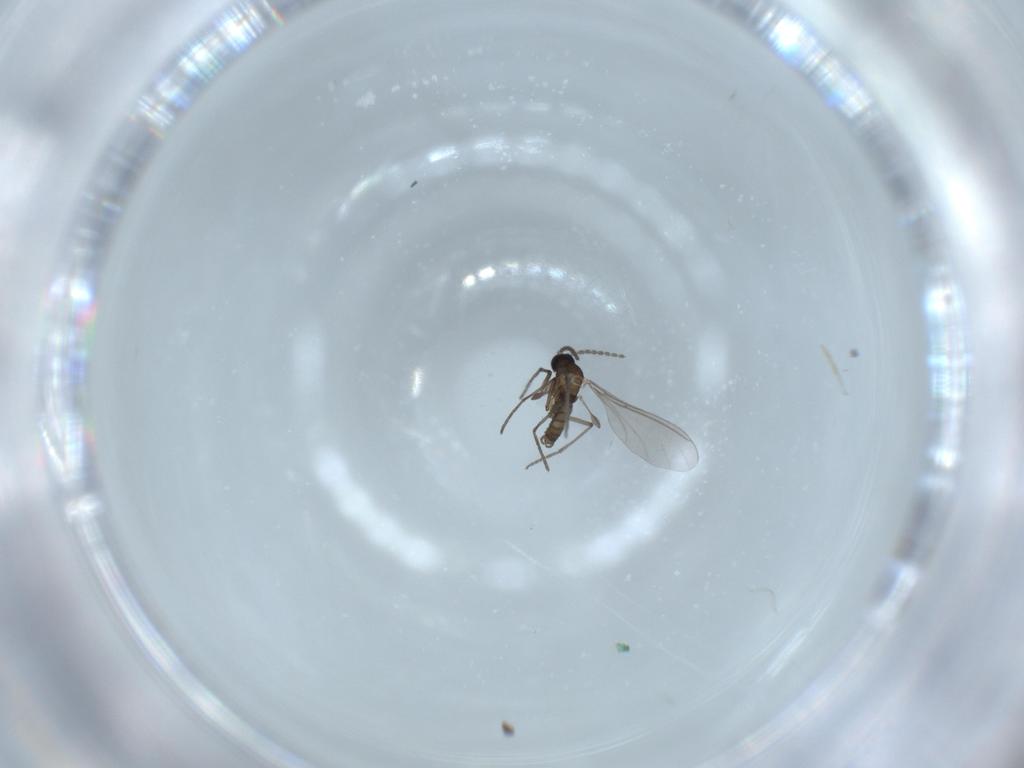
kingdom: Animalia
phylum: Arthropoda
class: Insecta
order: Diptera
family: Sciaridae
